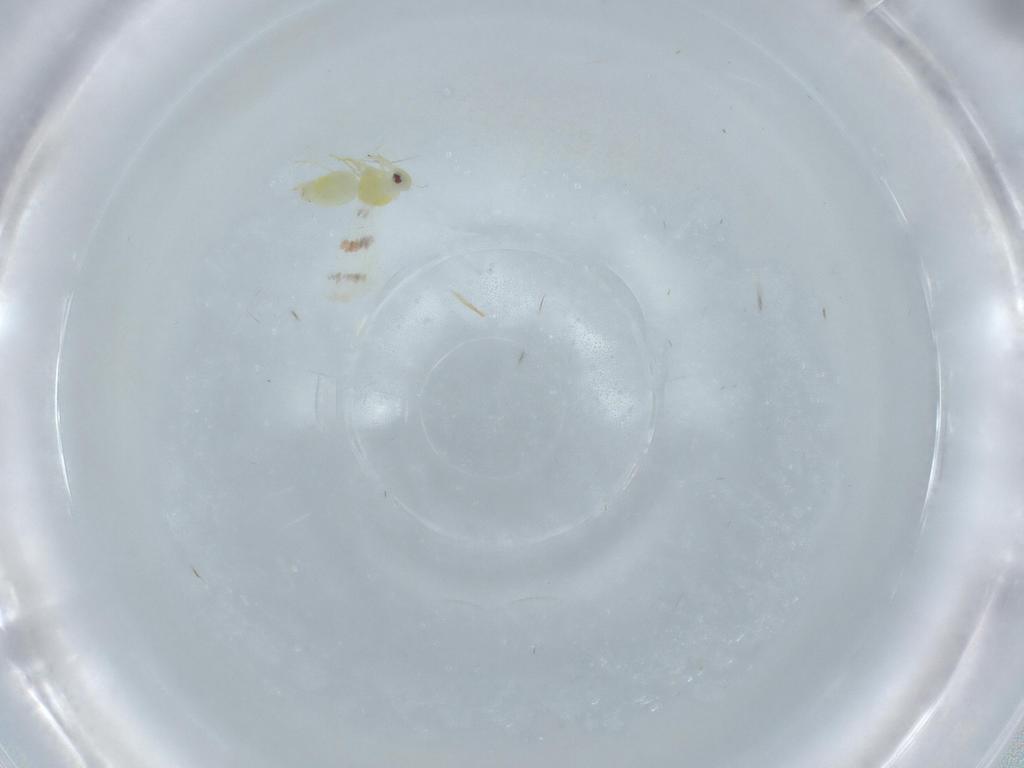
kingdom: Animalia
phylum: Arthropoda
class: Insecta
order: Hemiptera
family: Aleyrodidae
